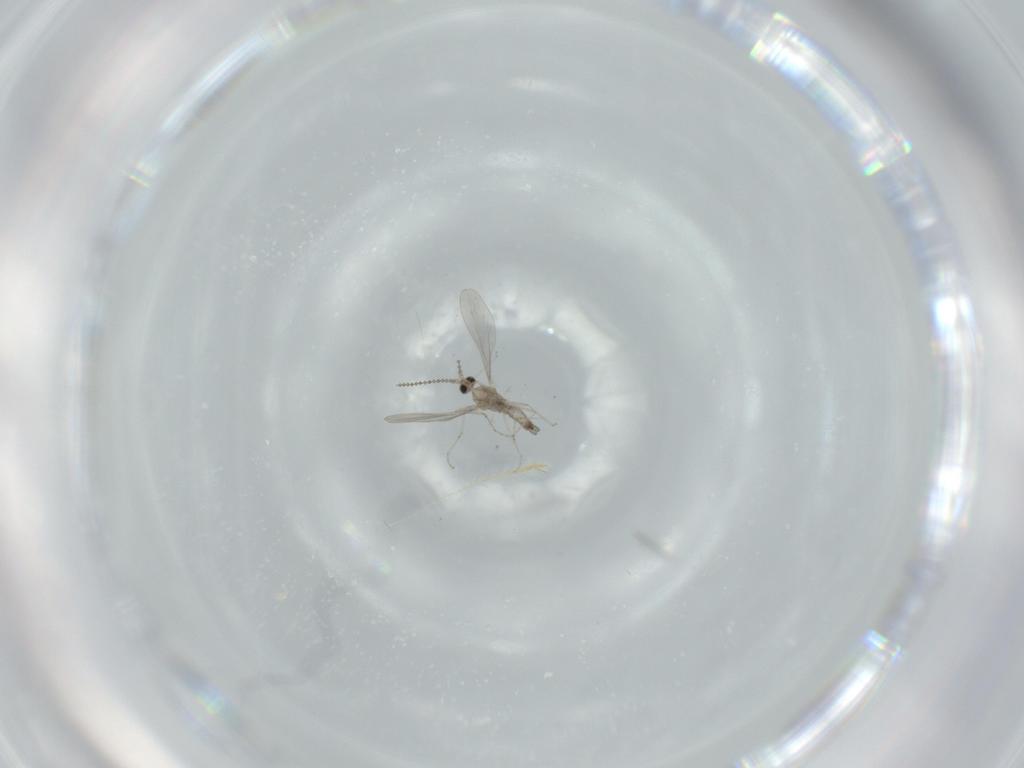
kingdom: Animalia
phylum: Arthropoda
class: Insecta
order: Diptera
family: Cecidomyiidae
